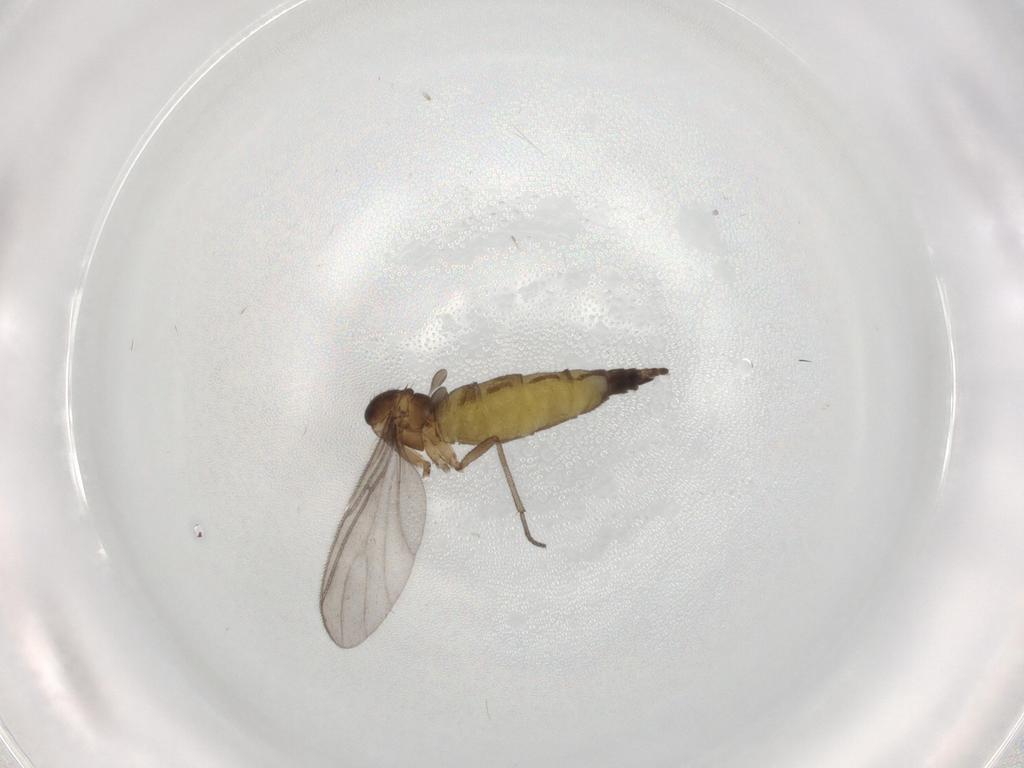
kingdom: Animalia
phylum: Arthropoda
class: Insecta
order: Diptera
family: Sciaridae
